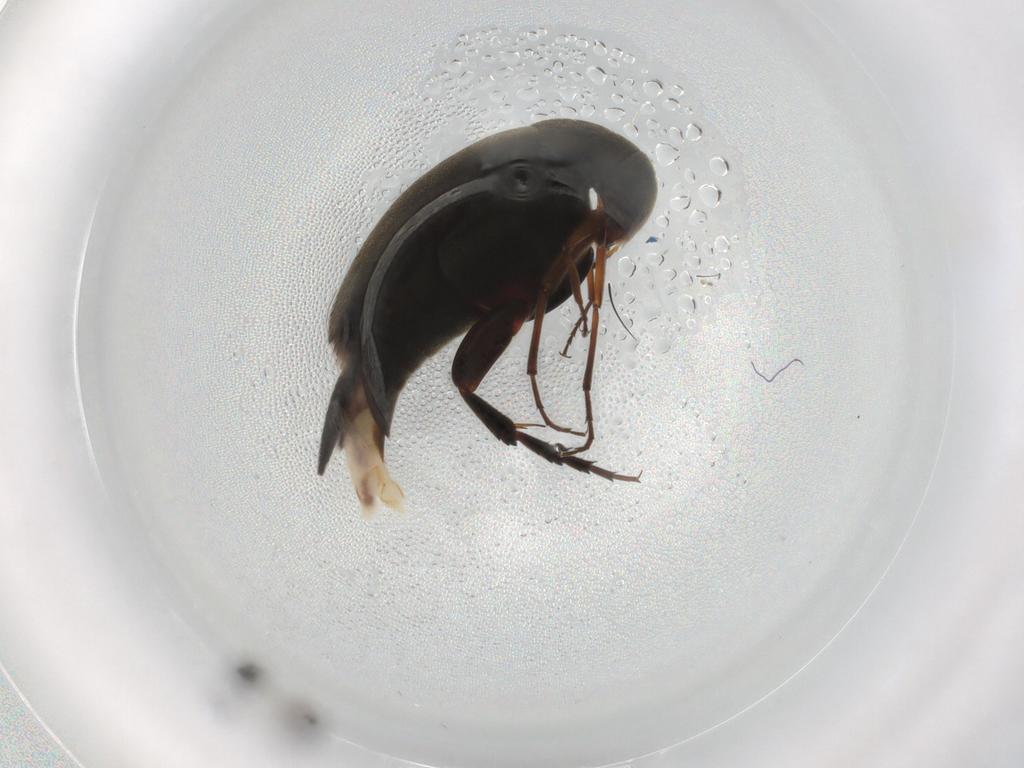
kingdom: Animalia
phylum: Arthropoda
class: Insecta
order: Coleoptera
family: Mordellidae
